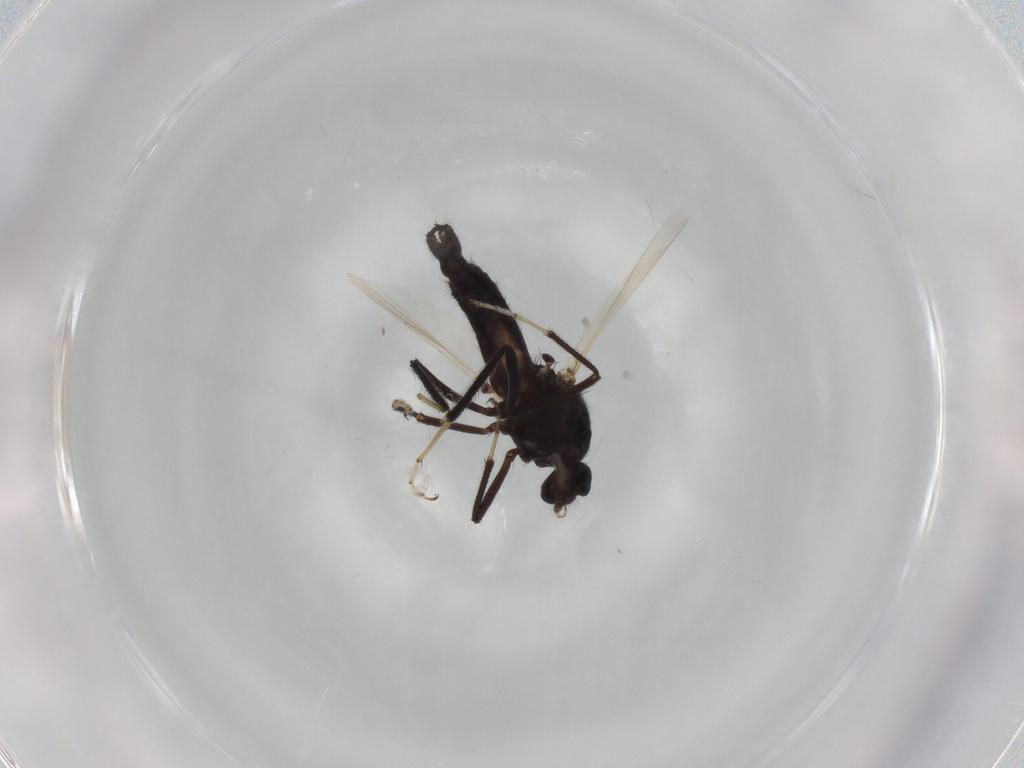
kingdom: Animalia
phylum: Arthropoda
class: Insecta
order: Diptera
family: Phoridae
